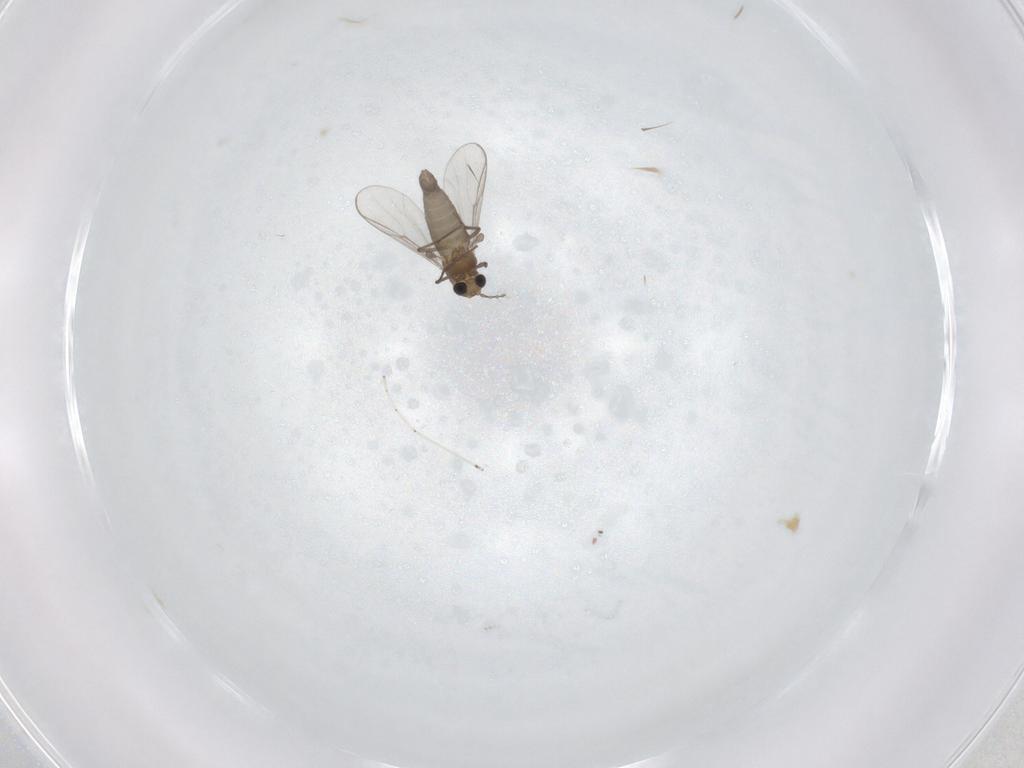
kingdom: Animalia
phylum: Arthropoda
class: Insecta
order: Diptera
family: Chironomidae
